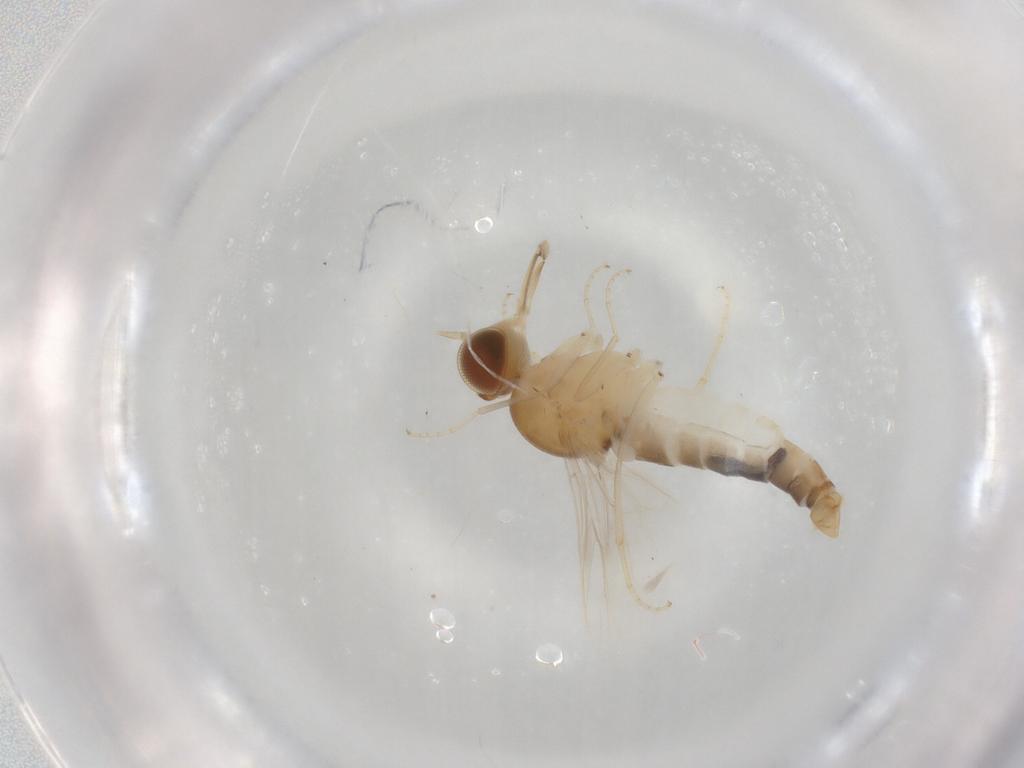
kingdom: Animalia
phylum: Arthropoda
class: Insecta
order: Diptera
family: Scenopinidae
